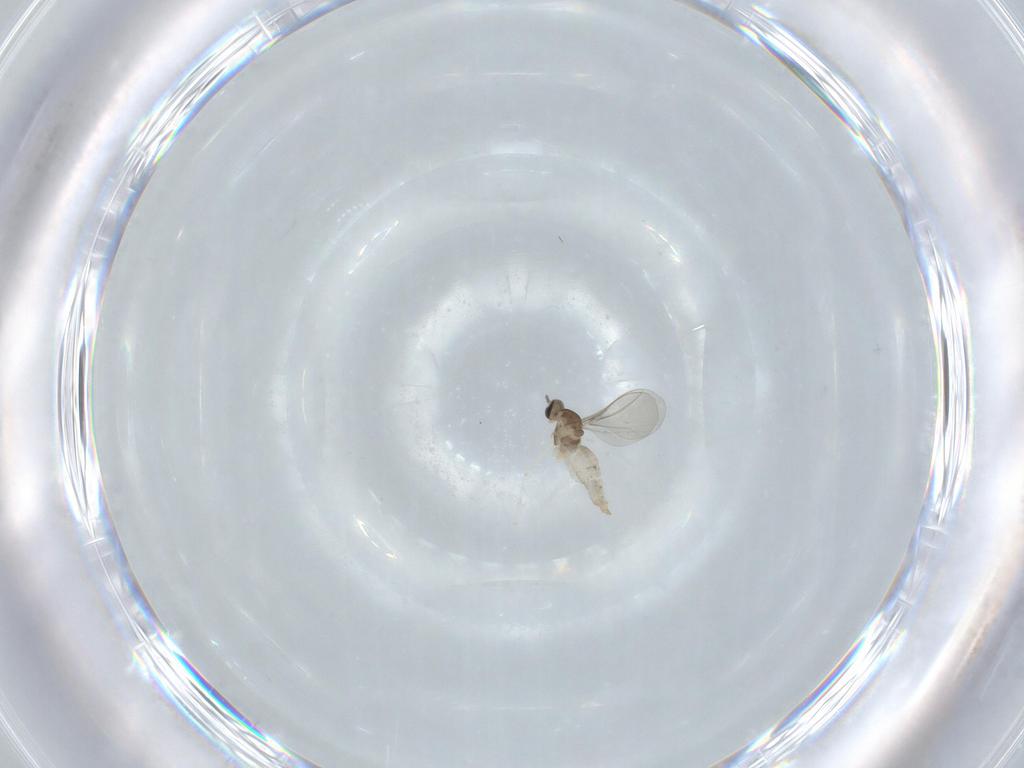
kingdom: Animalia
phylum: Arthropoda
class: Insecta
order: Diptera
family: Cecidomyiidae
